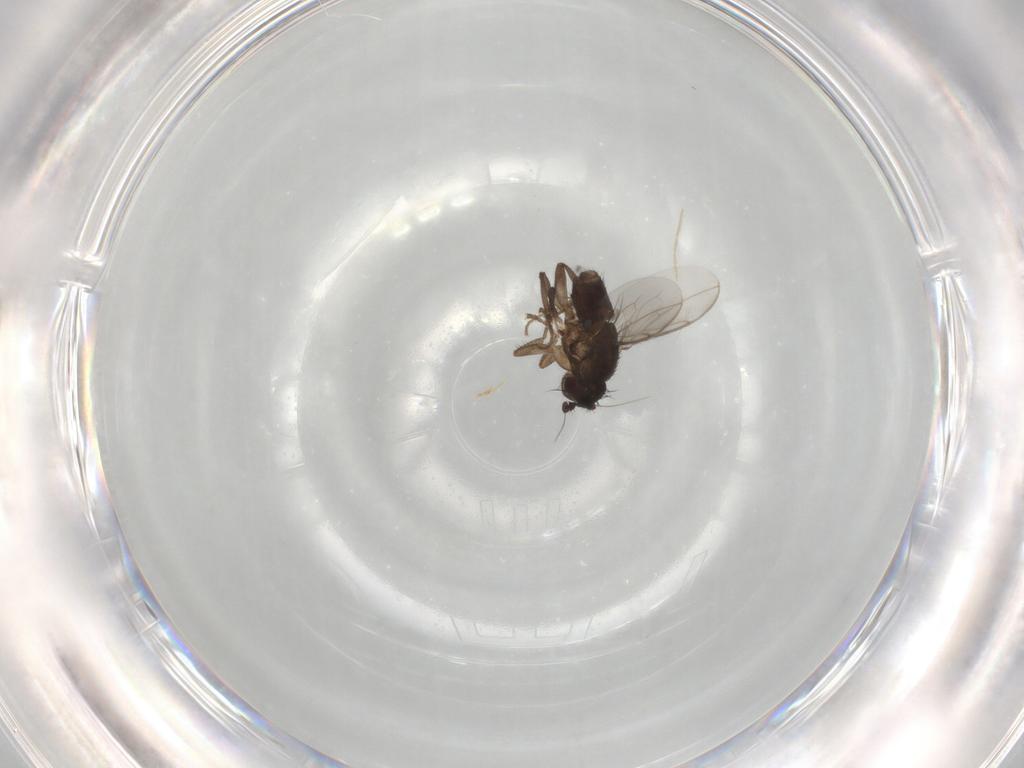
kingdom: Animalia
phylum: Arthropoda
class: Insecta
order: Diptera
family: Sphaeroceridae
